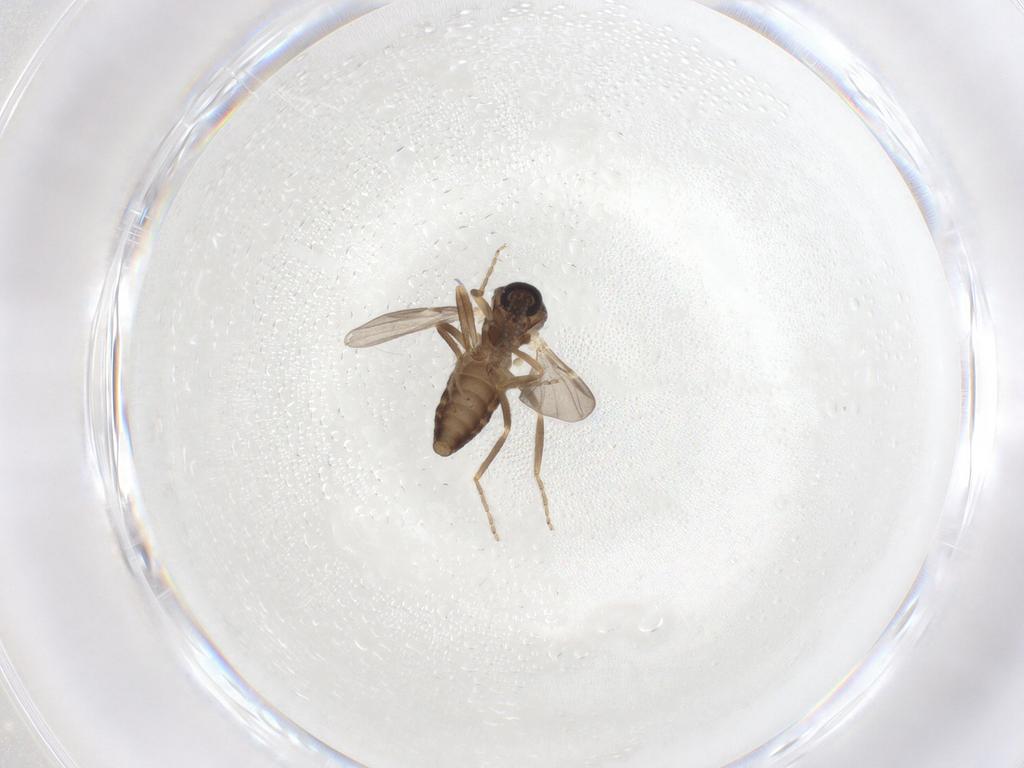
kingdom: Animalia
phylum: Arthropoda
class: Insecta
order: Diptera
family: Ceratopogonidae
